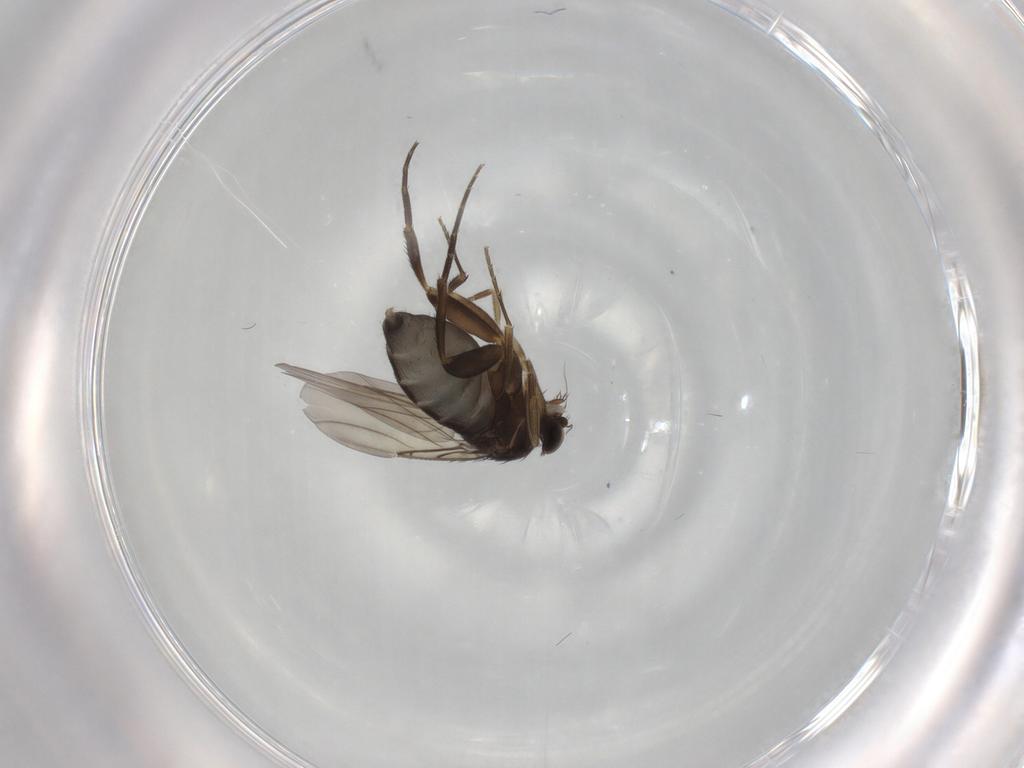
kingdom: Animalia
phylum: Arthropoda
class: Insecta
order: Diptera
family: Phoridae
